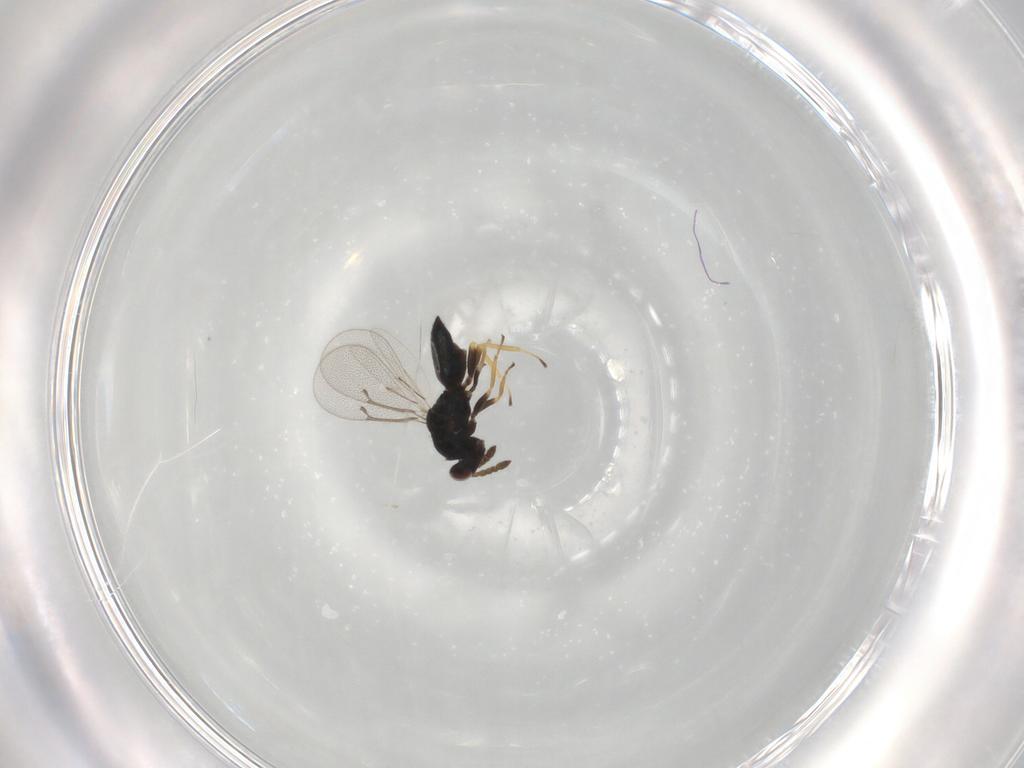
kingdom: Animalia
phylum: Arthropoda
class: Insecta
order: Hymenoptera
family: Eulophidae
